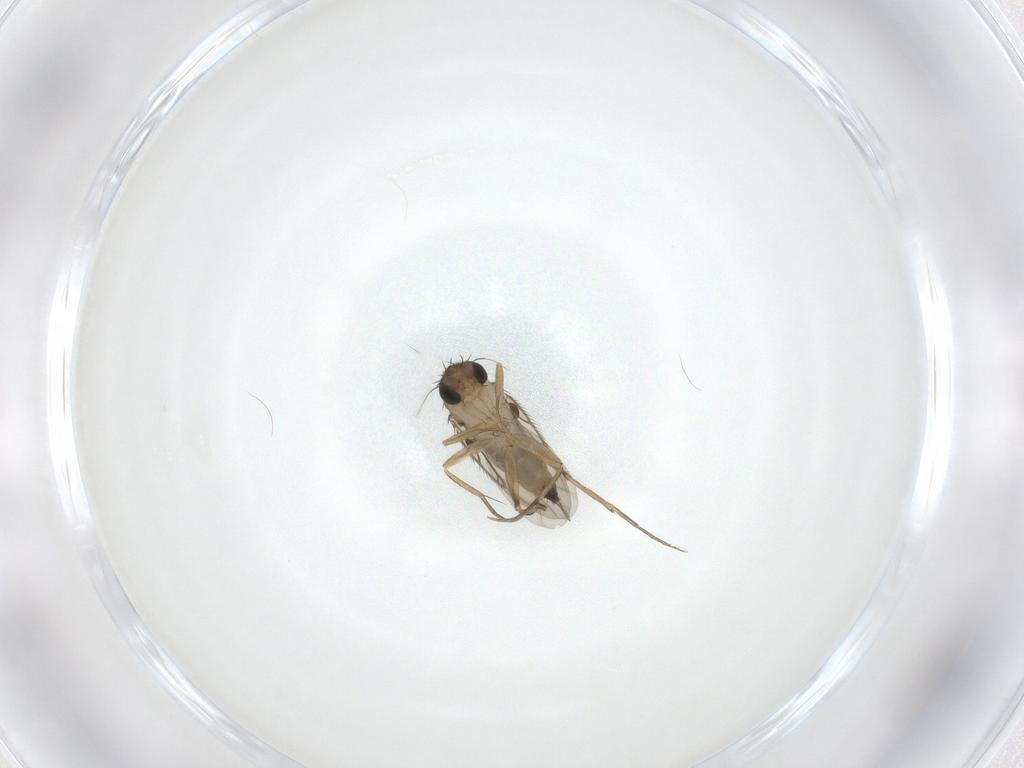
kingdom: Animalia
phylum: Arthropoda
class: Insecta
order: Diptera
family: Phoridae
